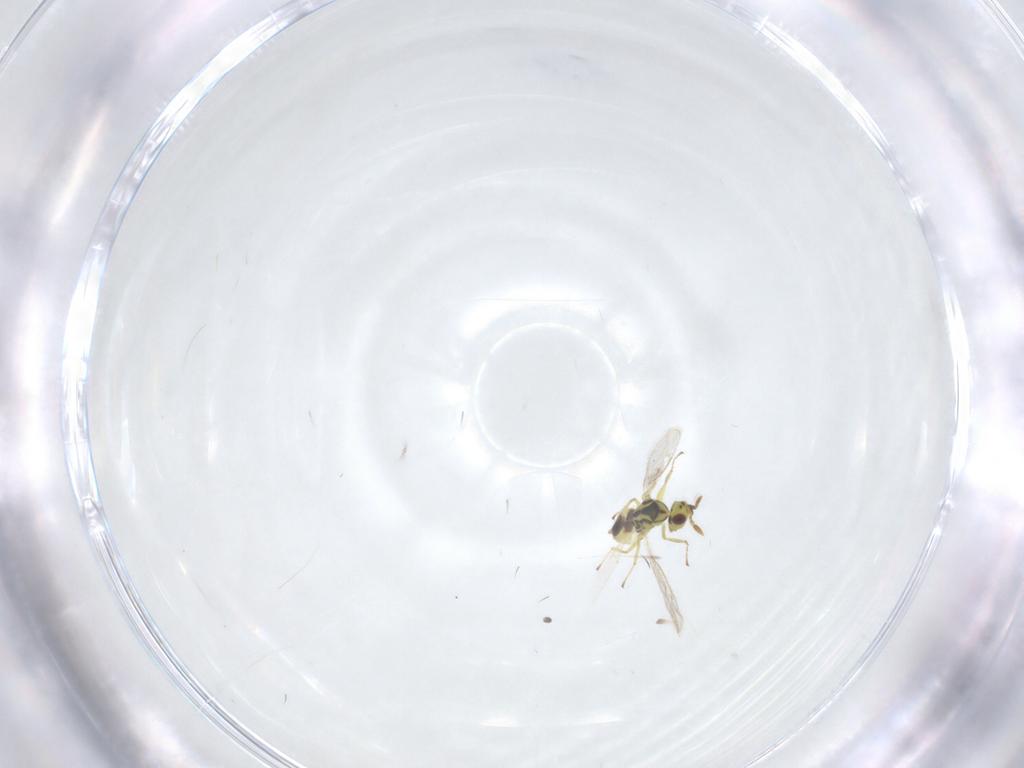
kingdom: Animalia
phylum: Arthropoda
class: Insecta
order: Hymenoptera
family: Eulophidae
